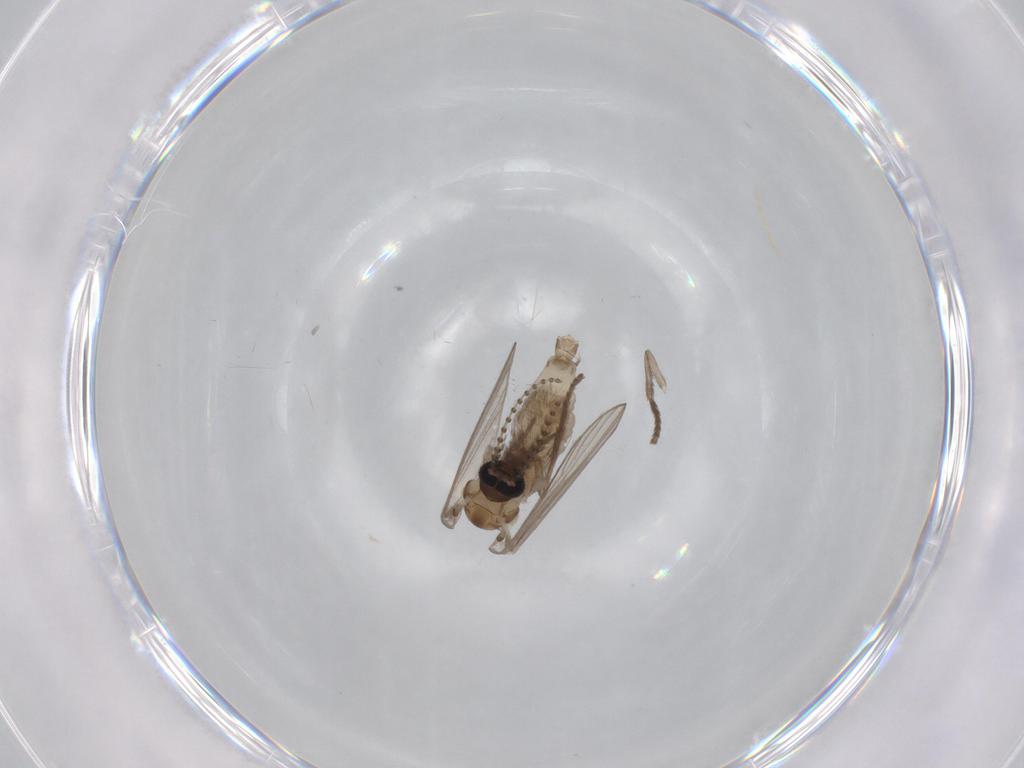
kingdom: Animalia
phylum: Arthropoda
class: Insecta
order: Diptera
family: Psychodidae
